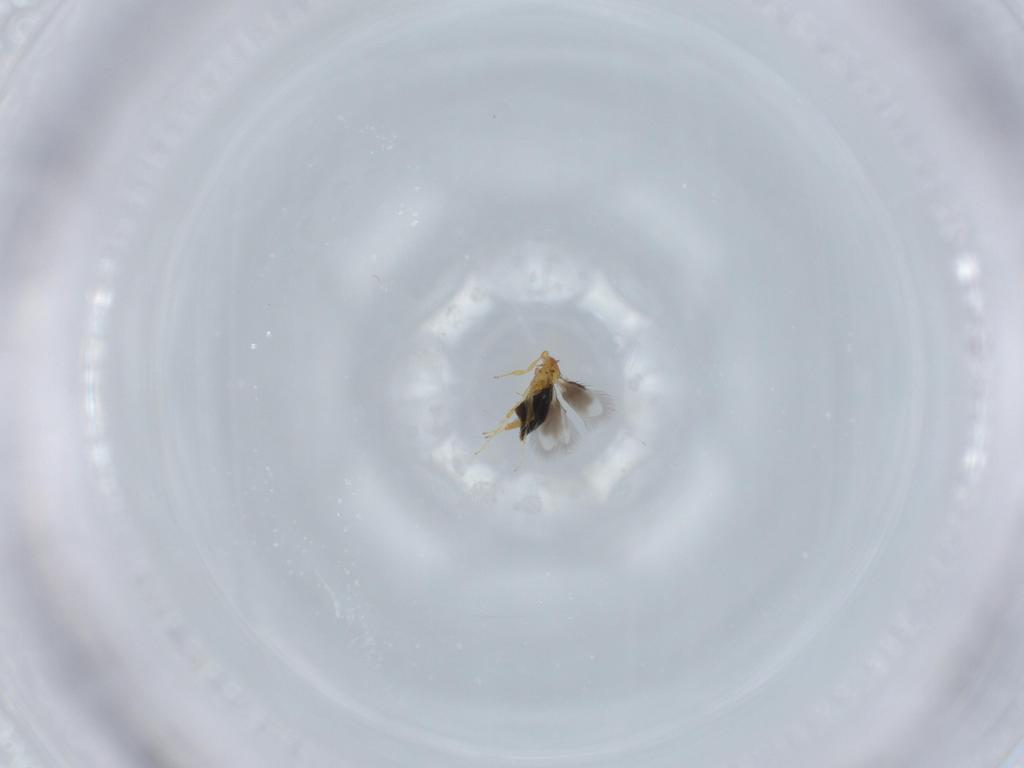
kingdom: Animalia
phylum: Arthropoda
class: Insecta
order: Hymenoptera
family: Signiphoridae
